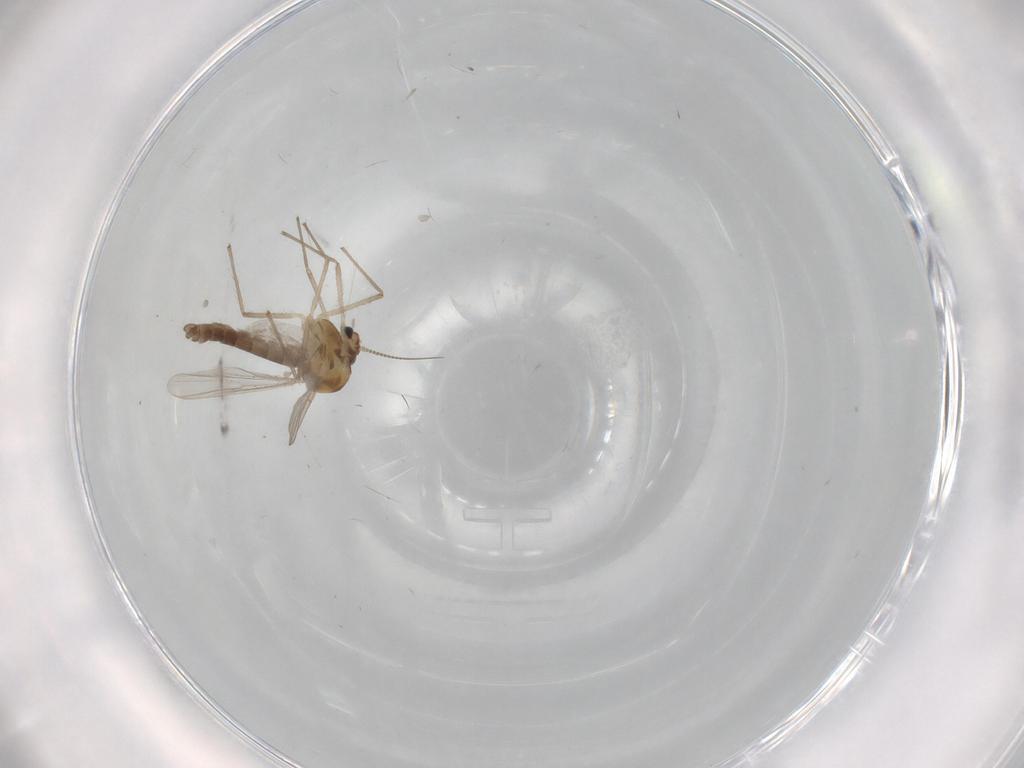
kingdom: Animalia
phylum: Arthropoda
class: Insecta
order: Diptera
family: Chironomidae
